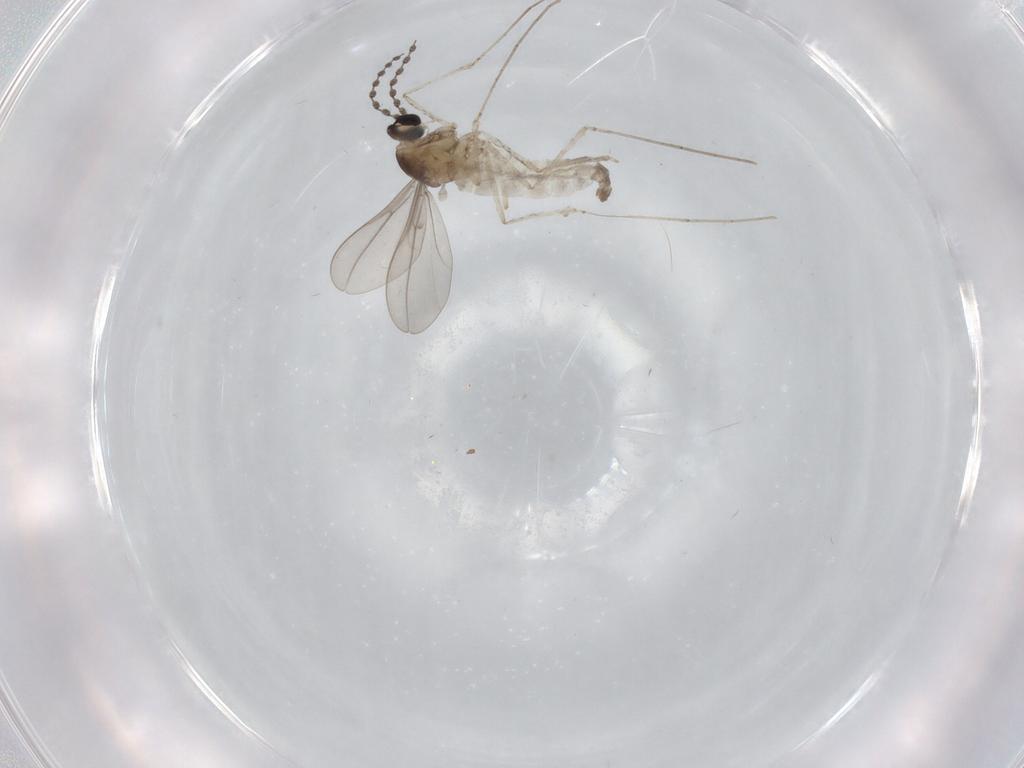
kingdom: Animalia
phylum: Arthropoda
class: Insecta
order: Diptera
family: Cecidomyiidae
